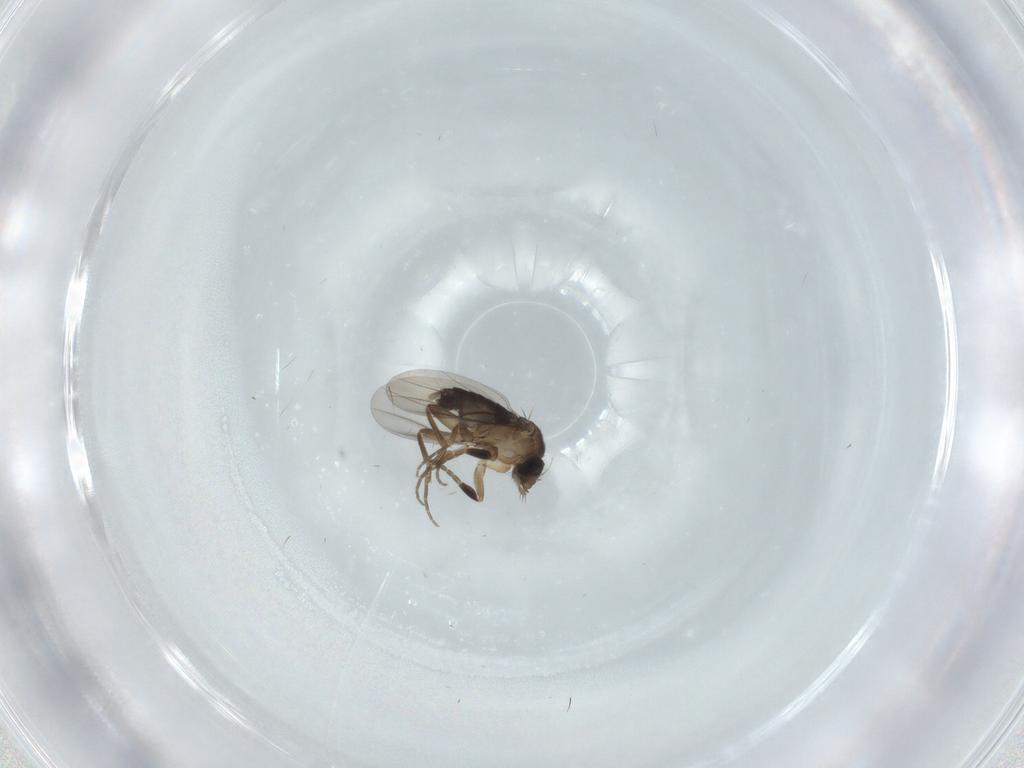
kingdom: Animalia
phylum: Arthropoda
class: Insecta
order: Diptera
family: Phoridae
